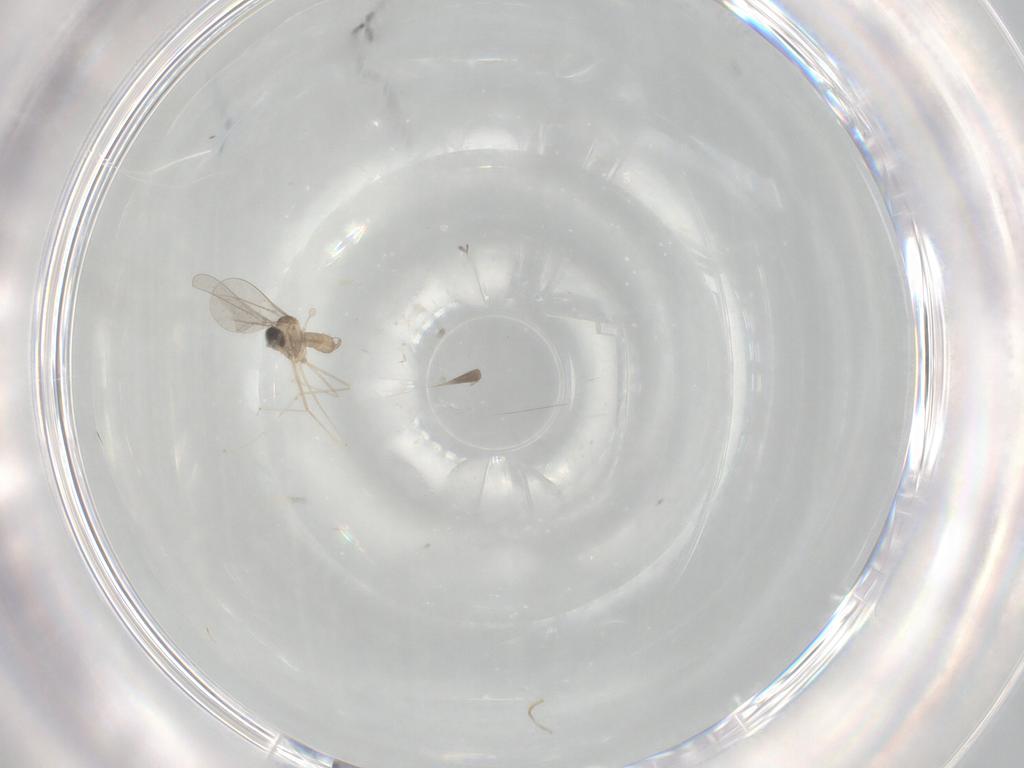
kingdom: Animalia
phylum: Arthropoda
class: Insecta
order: Diptera
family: Cecidomyiidae
